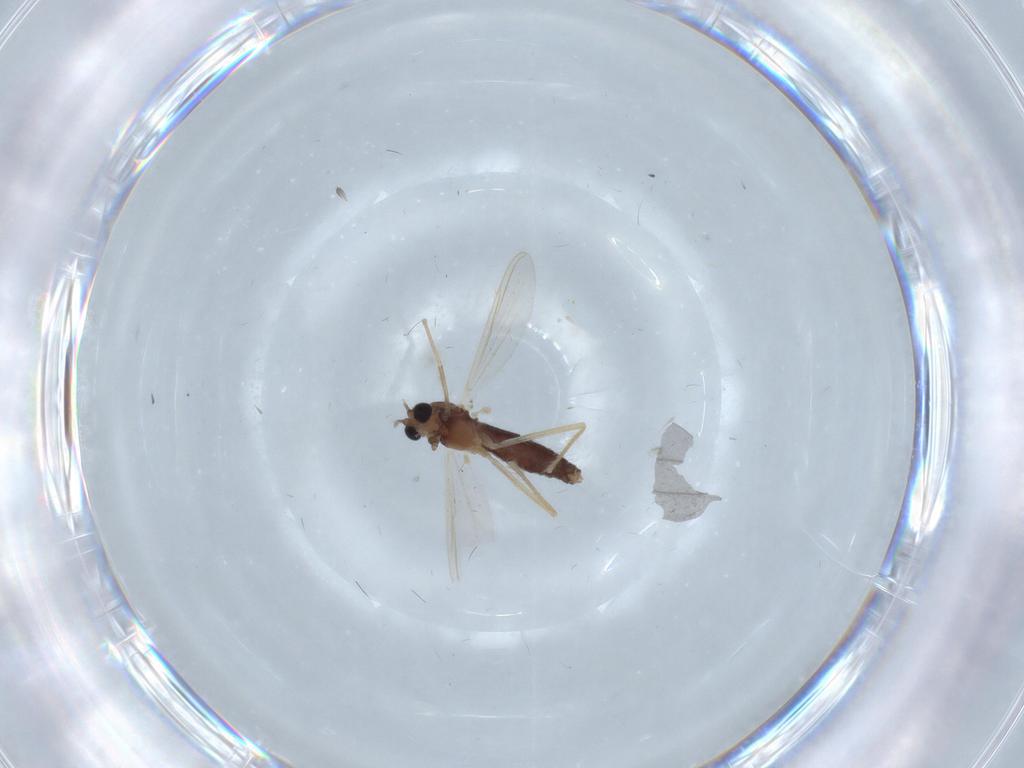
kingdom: Animalia
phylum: Arthropoda
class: Insecta
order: Diptera
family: Chironomidae
